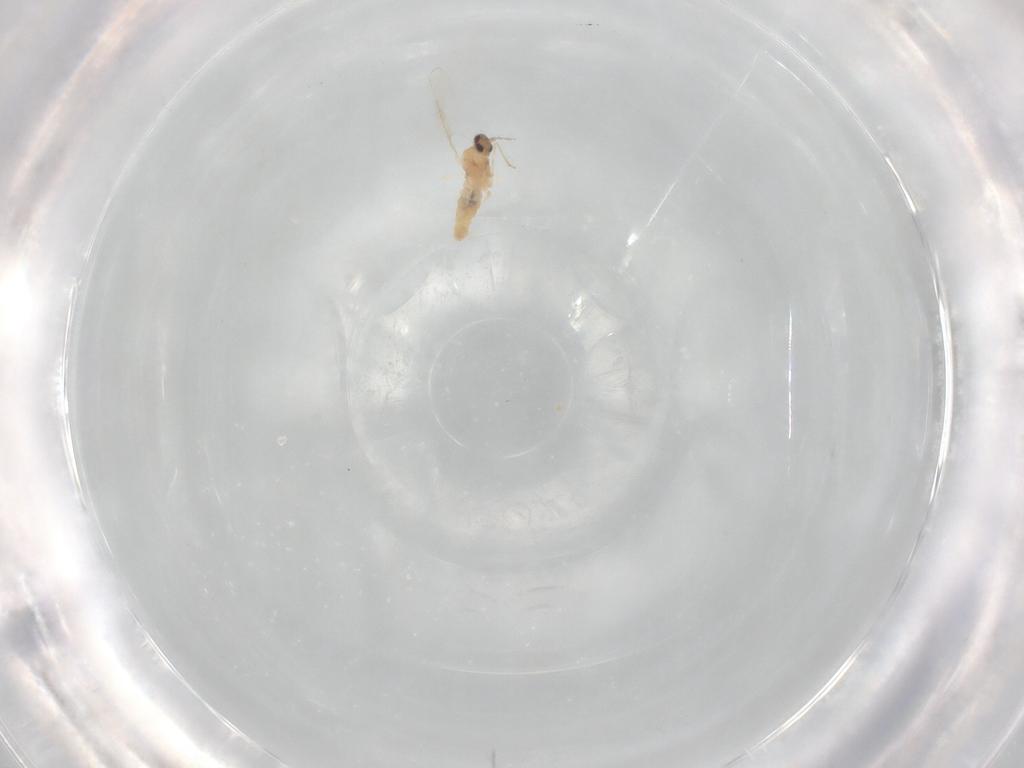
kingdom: Animalia
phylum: Arthropoda
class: Insecta
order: Diptera
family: Cecidomyiidae
